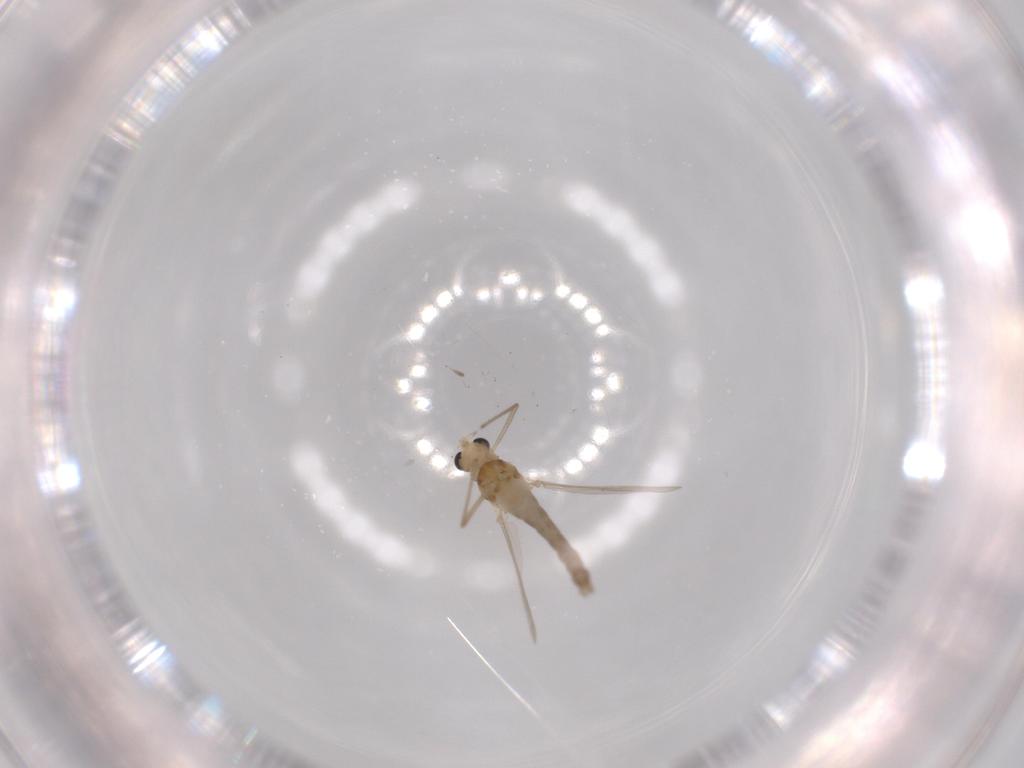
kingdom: Animalia
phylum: Arthropoda
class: Insecta
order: Diptera
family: Chironomidae
